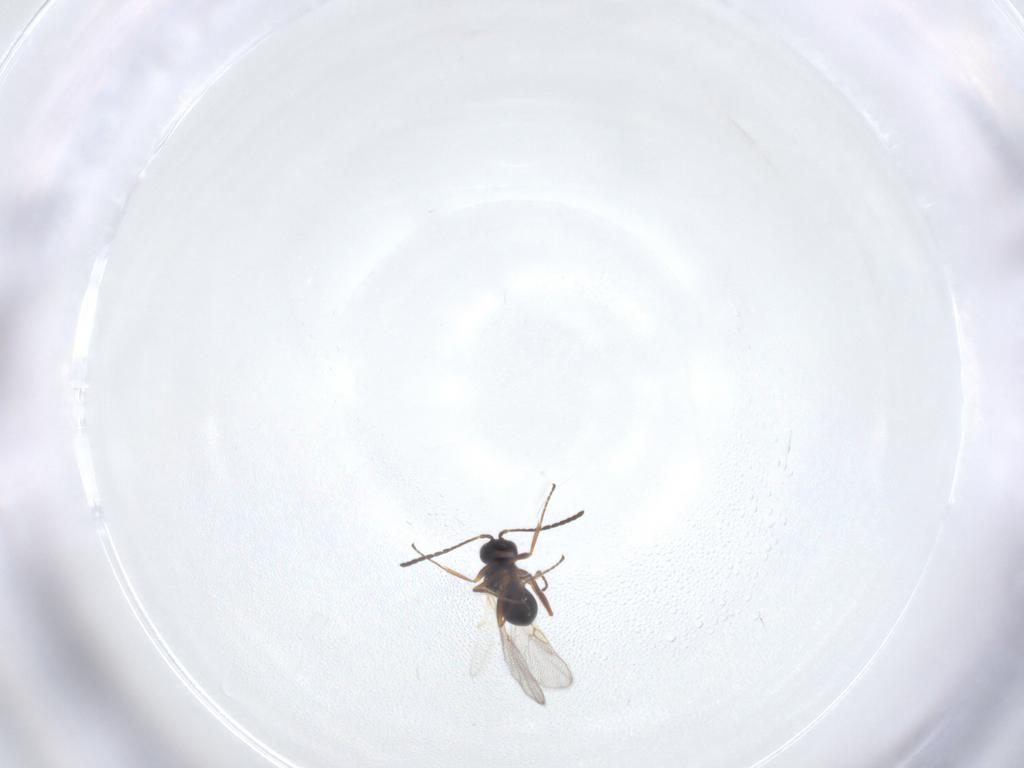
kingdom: Animalia
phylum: Arthropoda
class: Insecta
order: Hymenoptera
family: Figitidae
